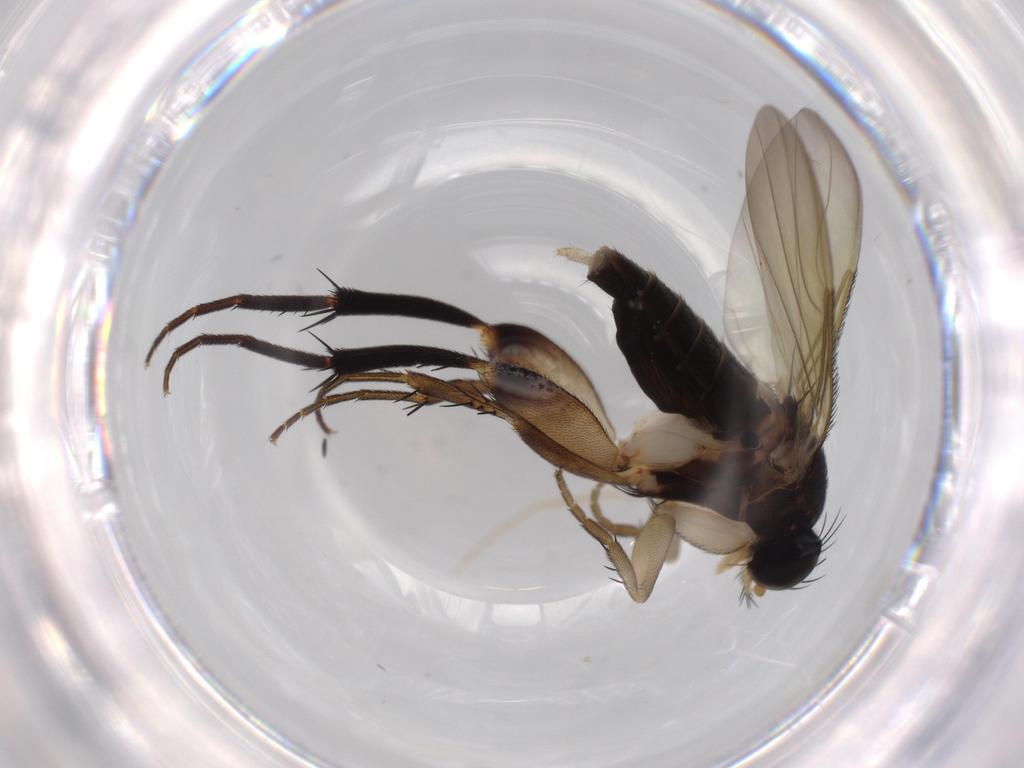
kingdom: Animalia
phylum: Arthropoda
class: Insecta
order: Diptera
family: Phoridae
